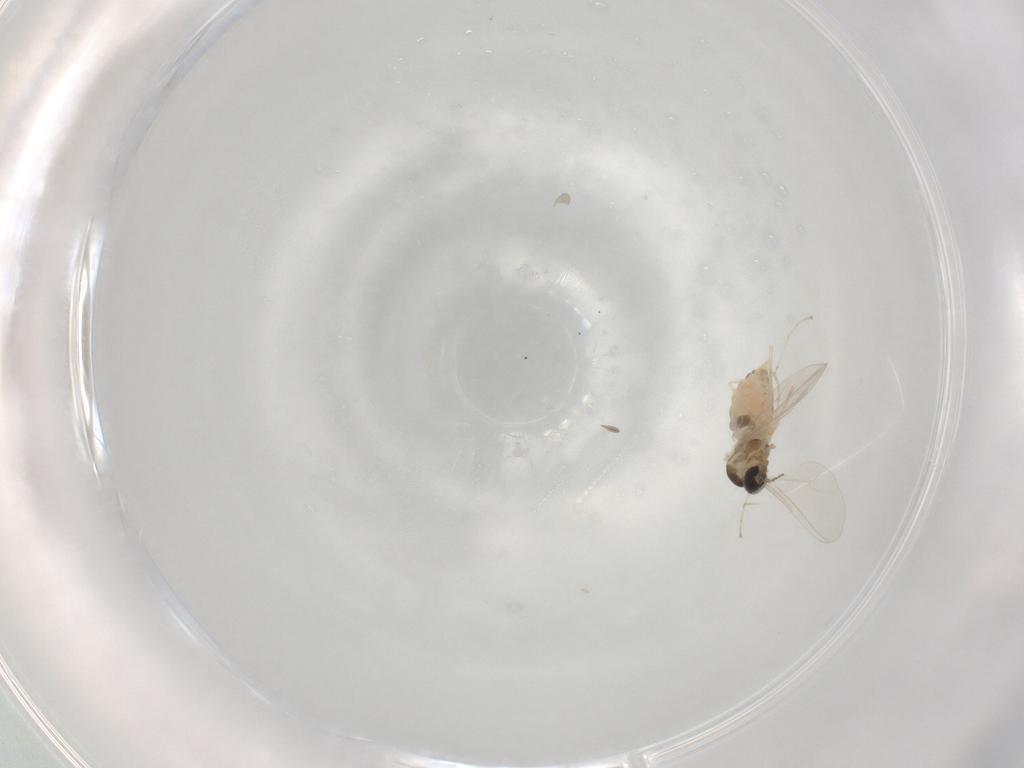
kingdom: Animalia
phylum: Arthropoda
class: Insecta
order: Diptera
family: Cecidomyiidae
